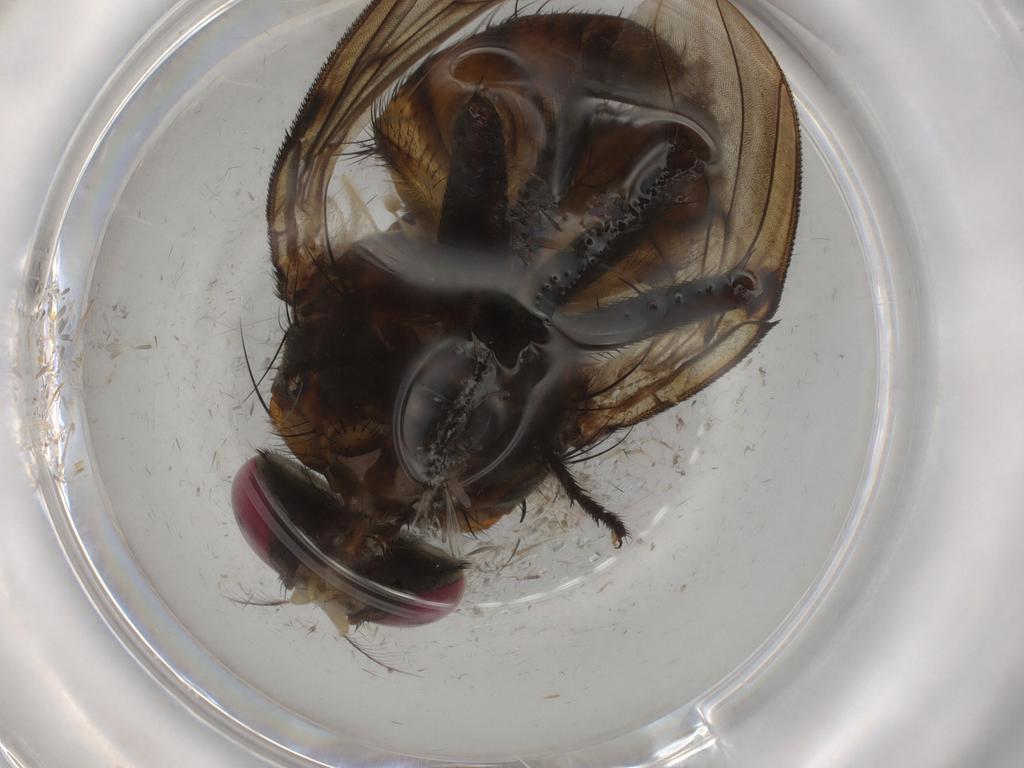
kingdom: Animalia
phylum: Arthropoda
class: Insecta
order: Diptera
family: Muscidae
